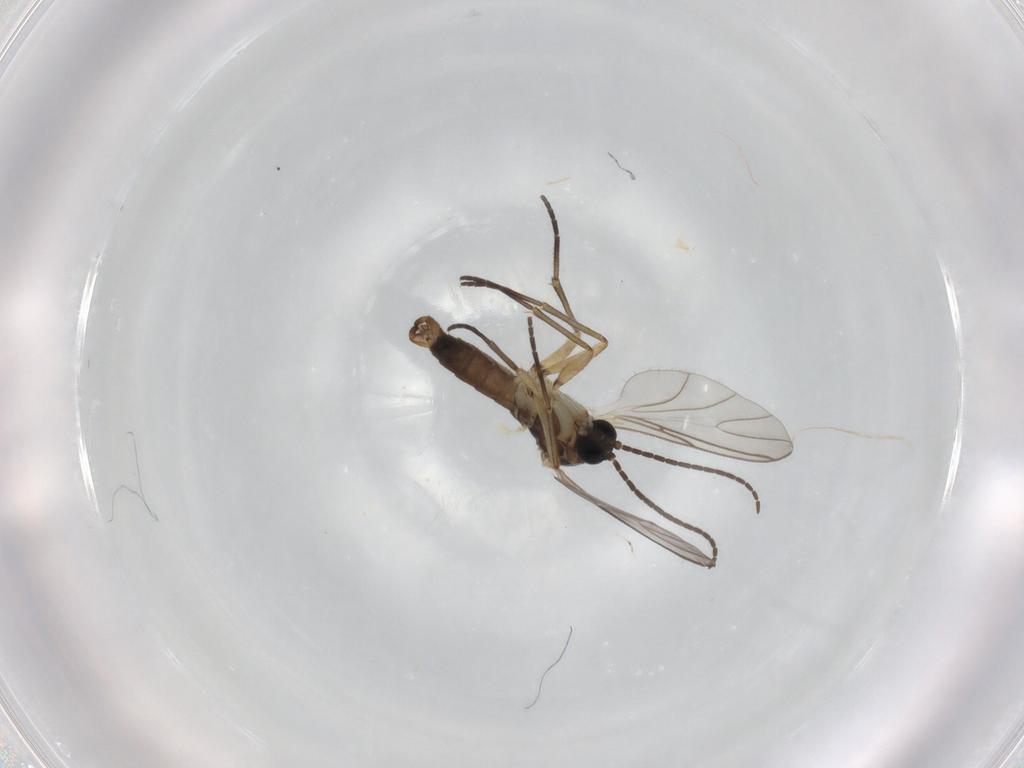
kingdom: Animalia
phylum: Arthropoda
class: Insecta
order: Diptera
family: Sciaridae
